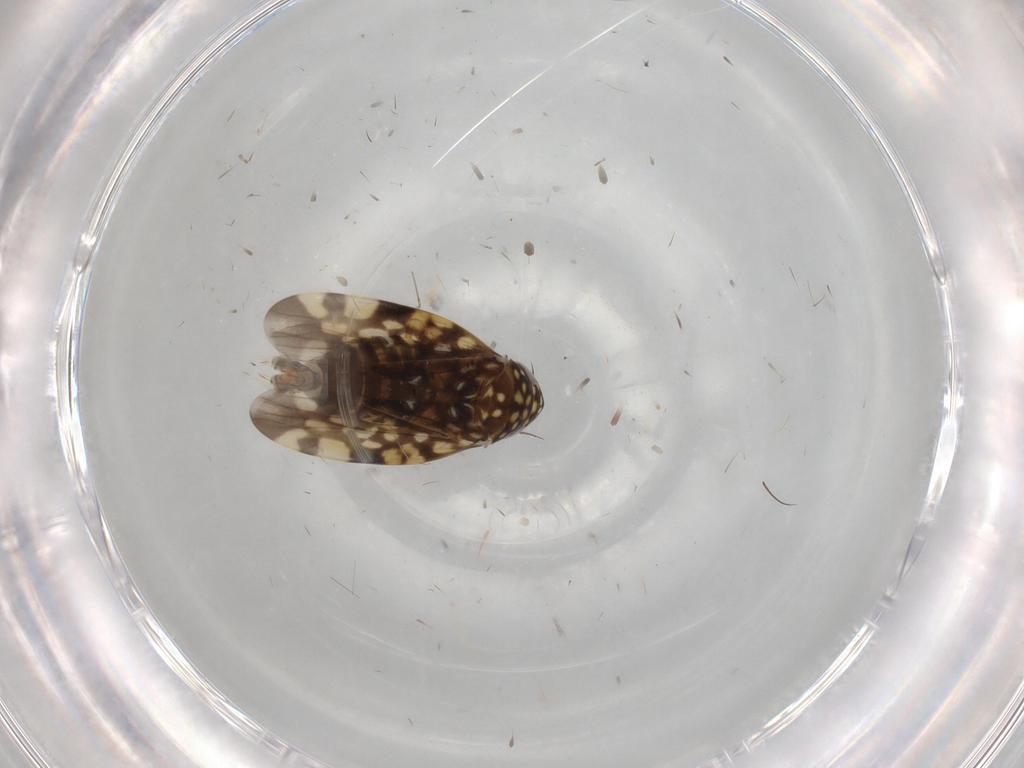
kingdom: Animalia
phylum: Arthropoda
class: Insecta
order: Hemiptera
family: Cicadellidae
